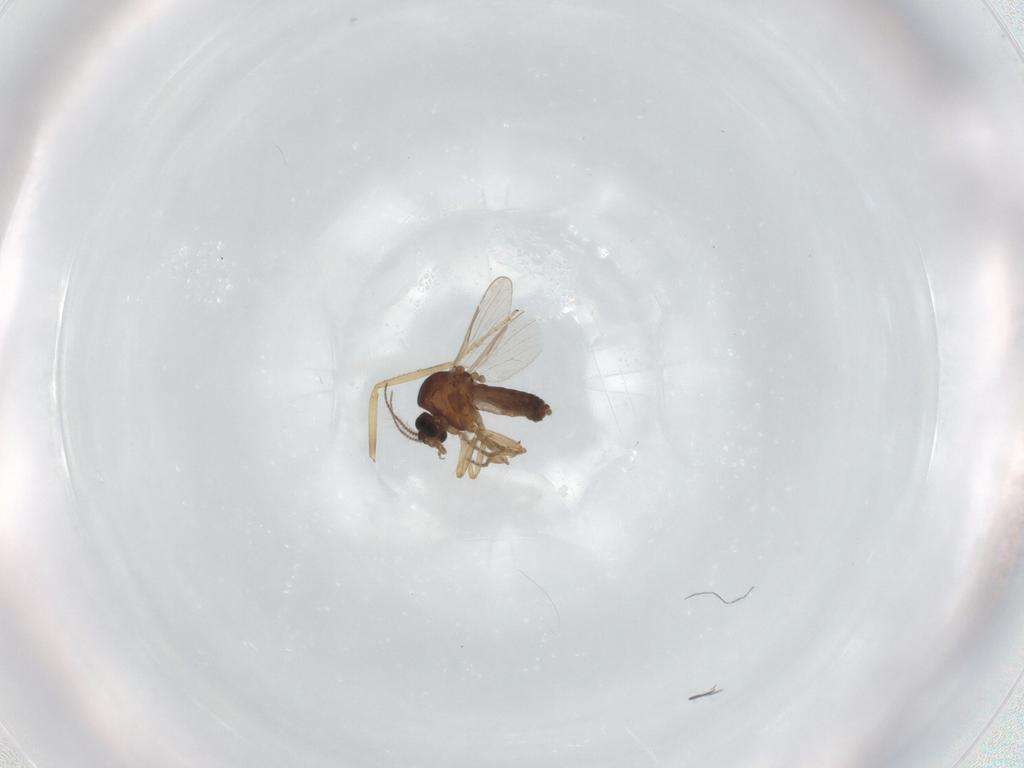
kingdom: Animalia
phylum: Arthropoda
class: Insecta
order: Diptera
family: Ceratopogonidae
